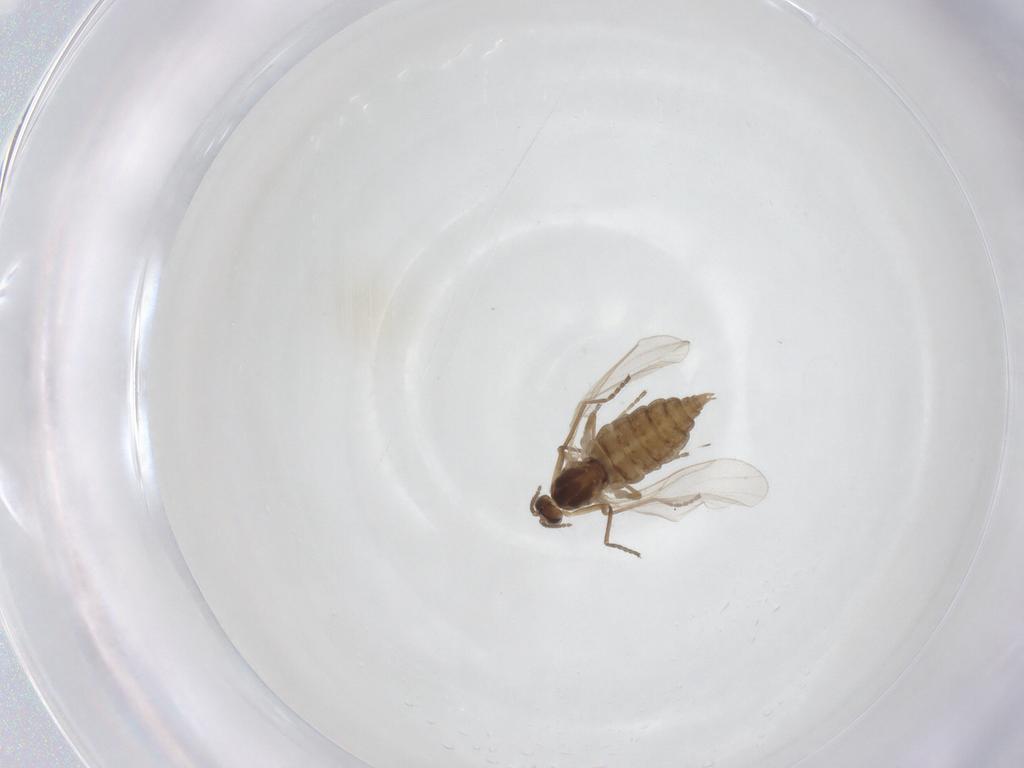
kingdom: Animalia
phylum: Arthropoda
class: Insecta
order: Diptera
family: Cecidomyiidae
